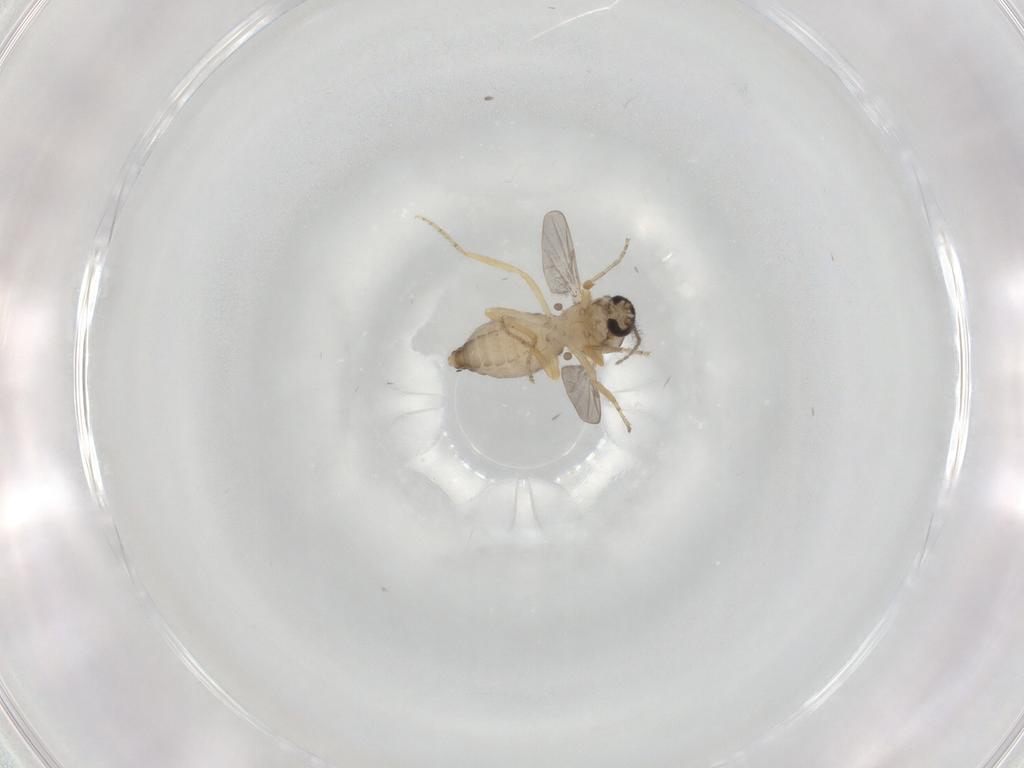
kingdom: Animalia
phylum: Arthropoda
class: Insecta
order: Diptera
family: Ceratopogonidae
